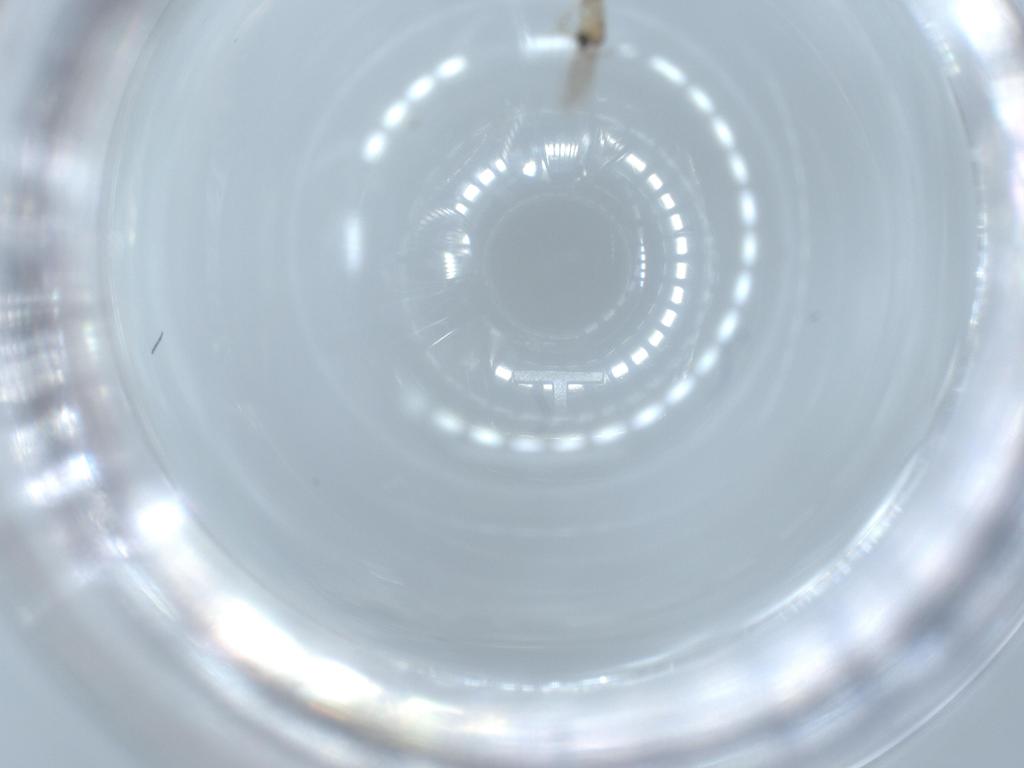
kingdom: Animalia
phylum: Arthropoda
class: Insecta
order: Diptera
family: Cecidomyiidae
